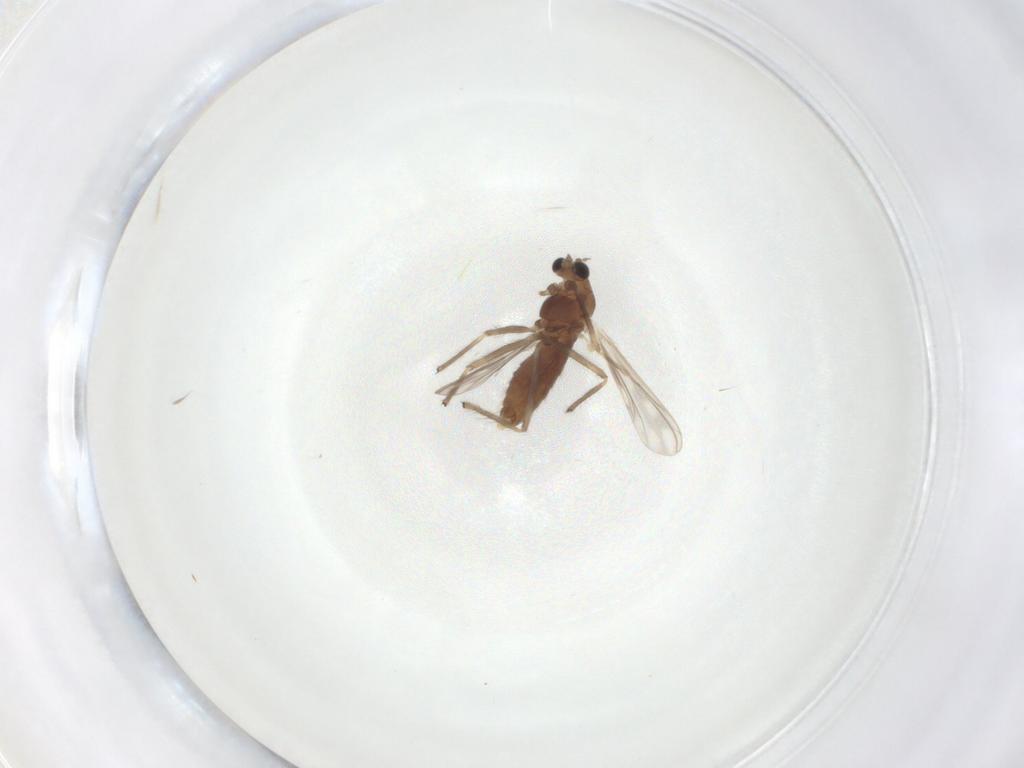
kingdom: Animalia
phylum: Arthropoda
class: Insecta
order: Diptera
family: Chironomidae
